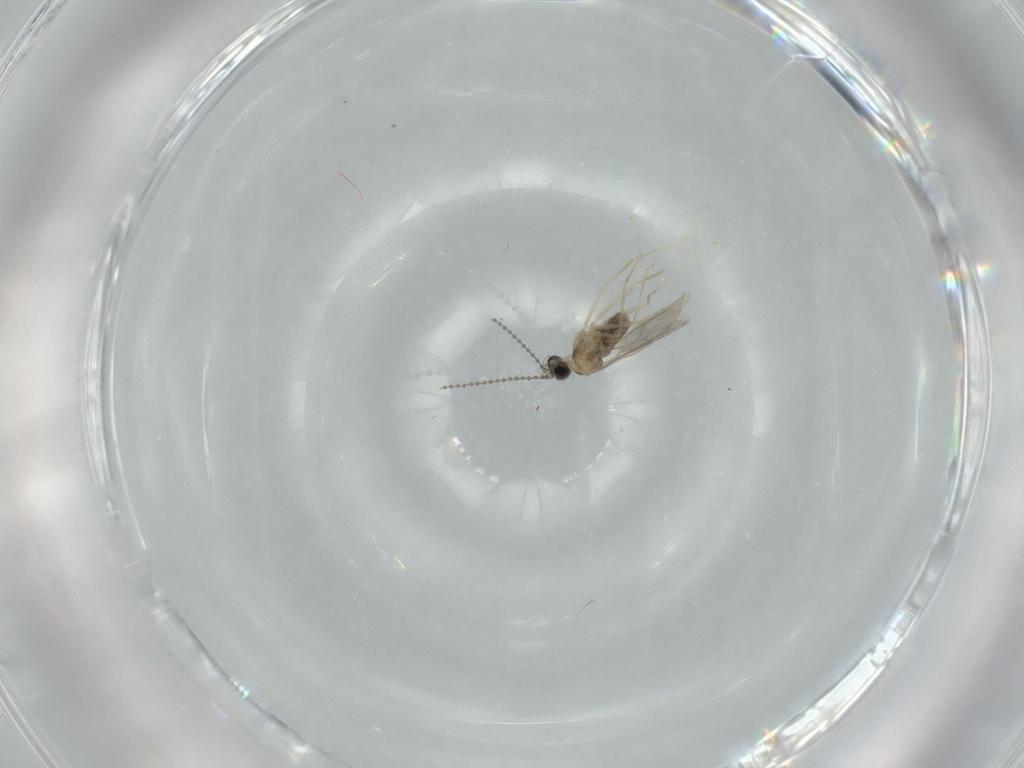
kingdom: Animalia
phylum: Arthropoda
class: Insecta
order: Diptera
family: Cecidomyiidae
